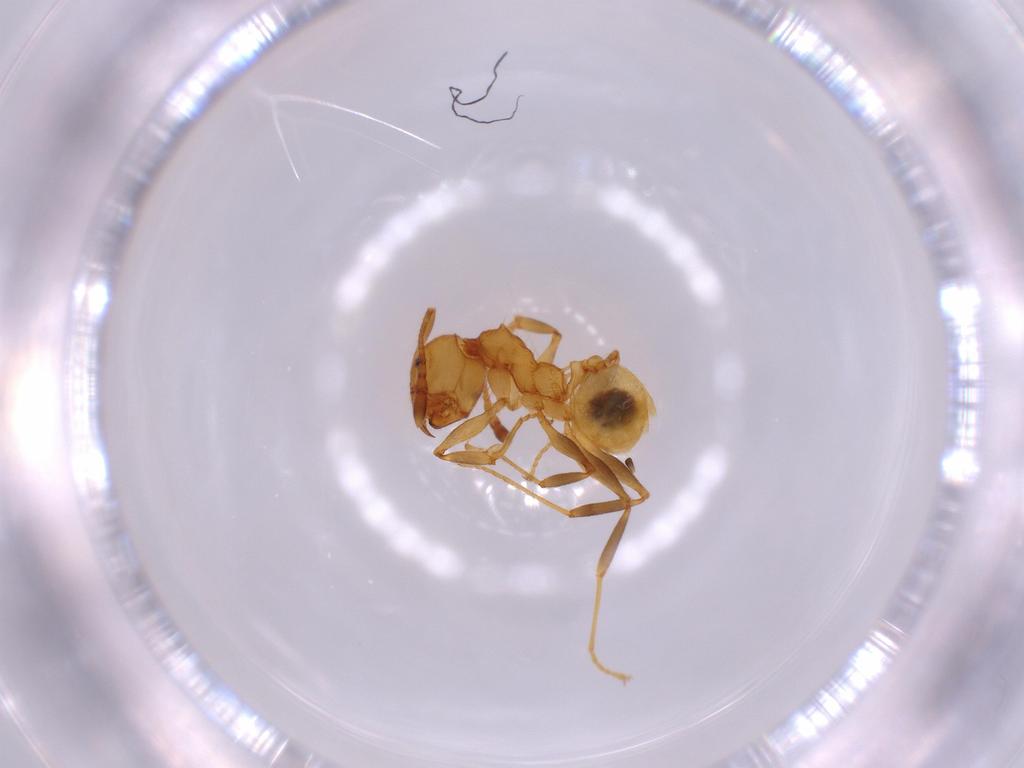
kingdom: Animalia
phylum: Arthropoda
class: Insecta
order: Hymenoptera
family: Formicidae
